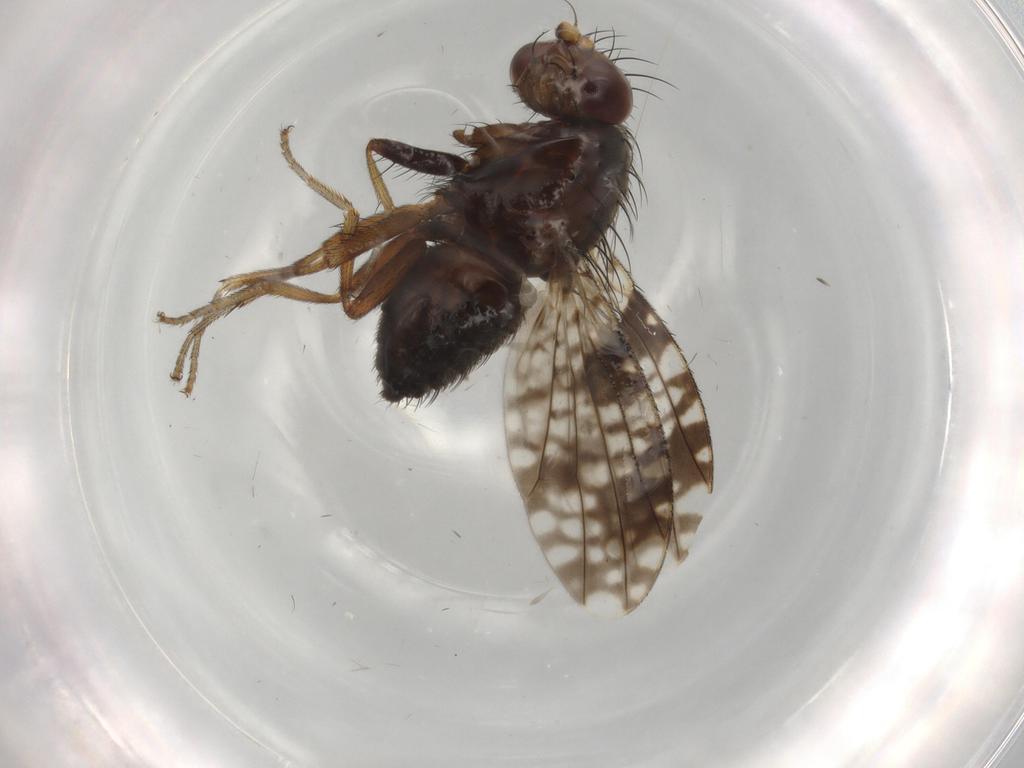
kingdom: Animalia
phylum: Arthropoda
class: Insecta
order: Diptera
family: Tephritidae
